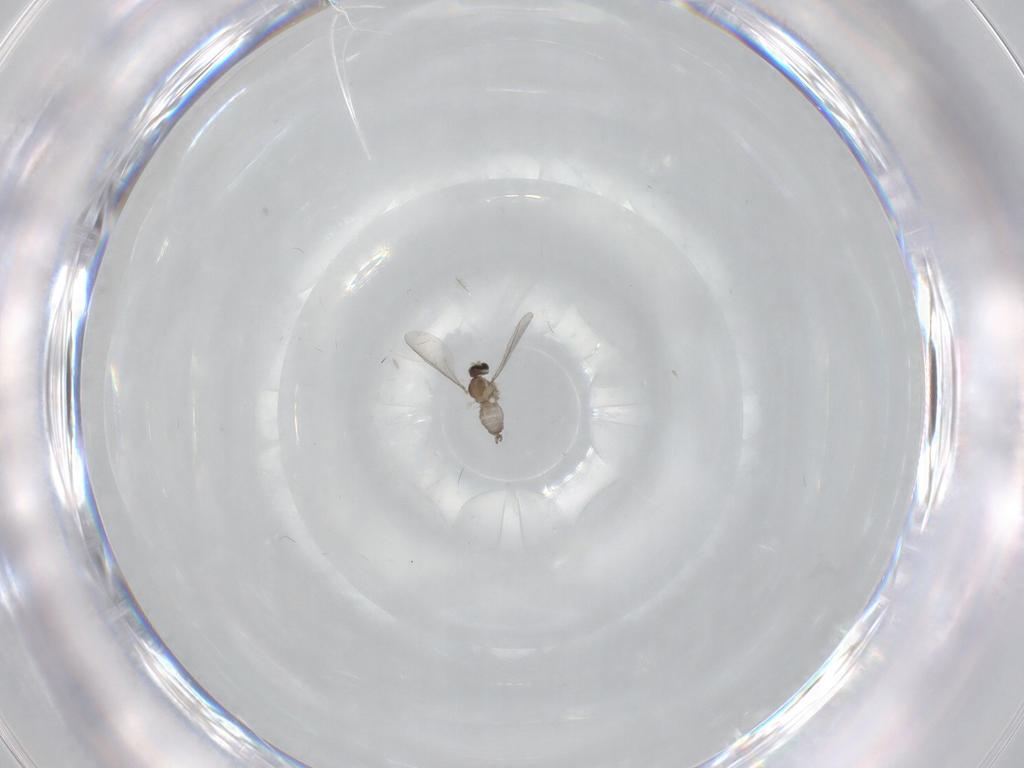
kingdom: Animalia
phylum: Arthropoda
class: Insecta
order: Diptera
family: Cecidomyiidae
